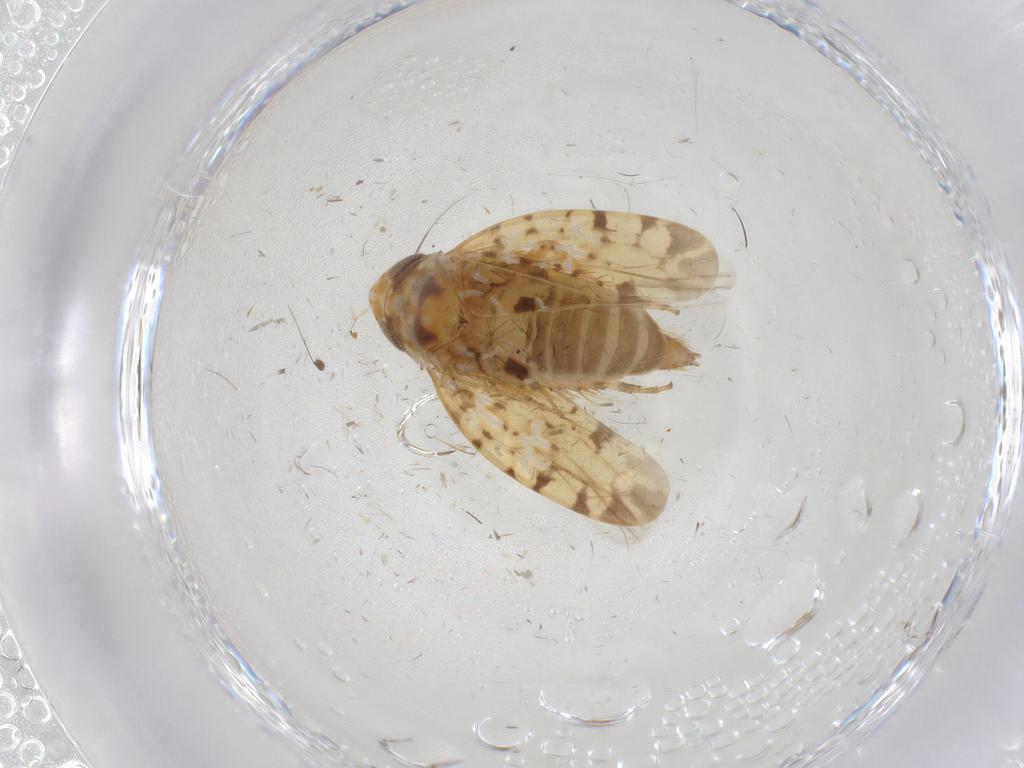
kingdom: Animalia
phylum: Arthropoda
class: Insecta
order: Hemiptera
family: Cicadellidae
